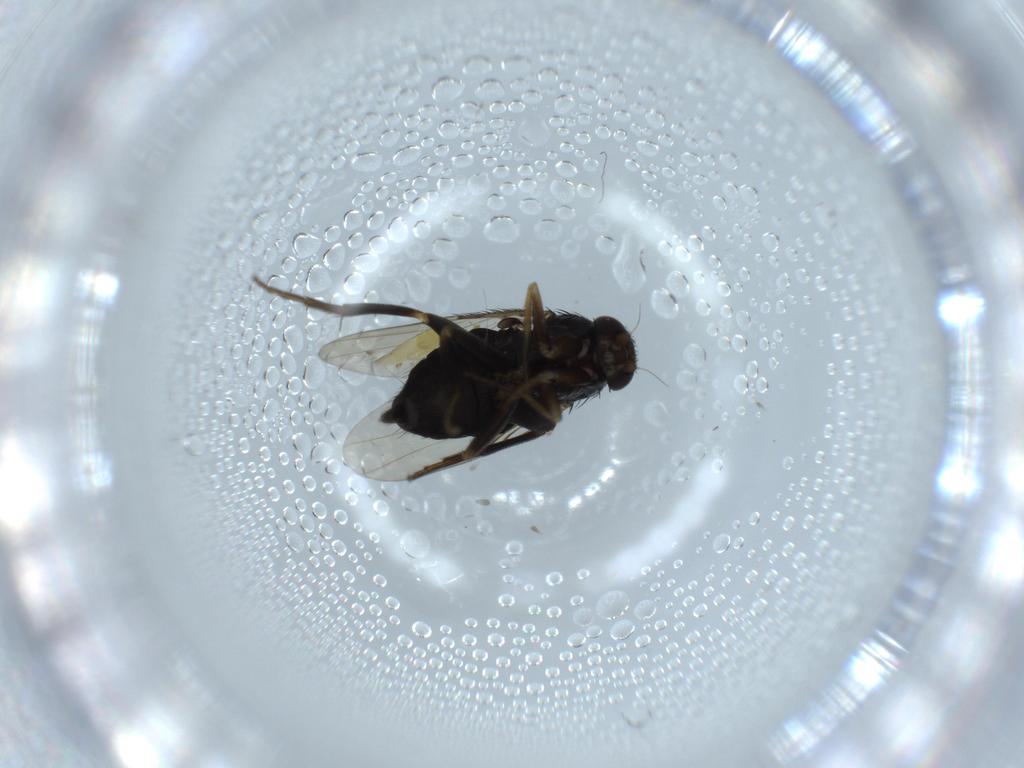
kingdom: Animalia
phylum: Arthropoda
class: Insecta
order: Diptera
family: Phoridae
